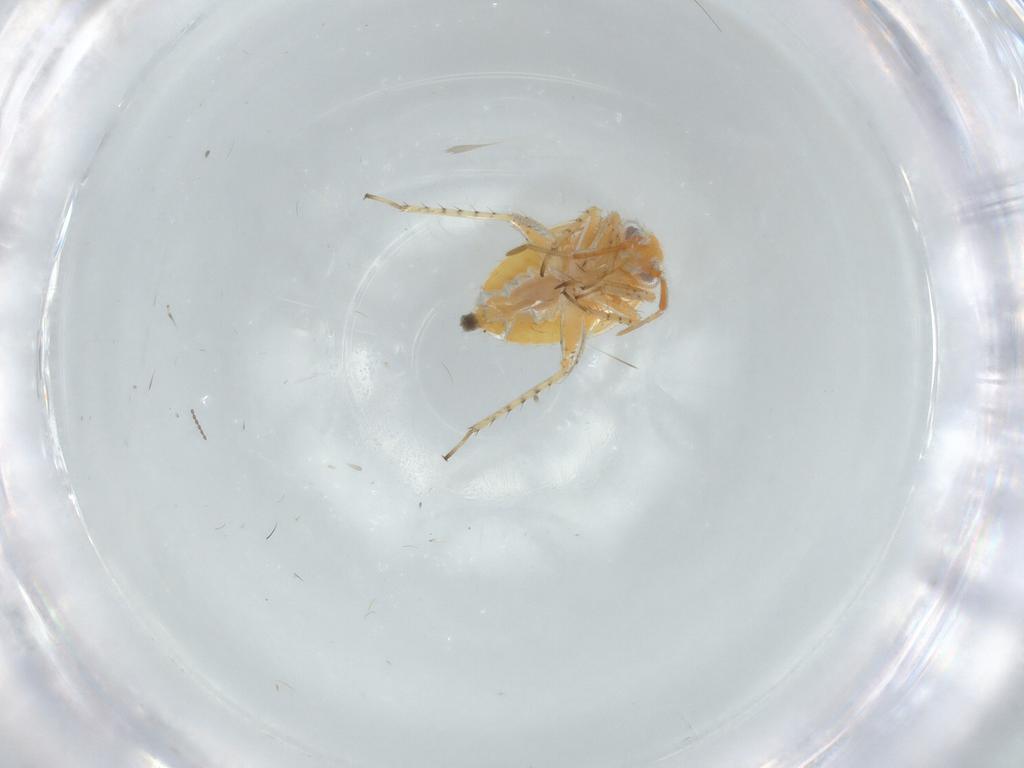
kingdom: Animalia
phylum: Arthropoda
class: Insecta
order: Hemiptera
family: Miridae
